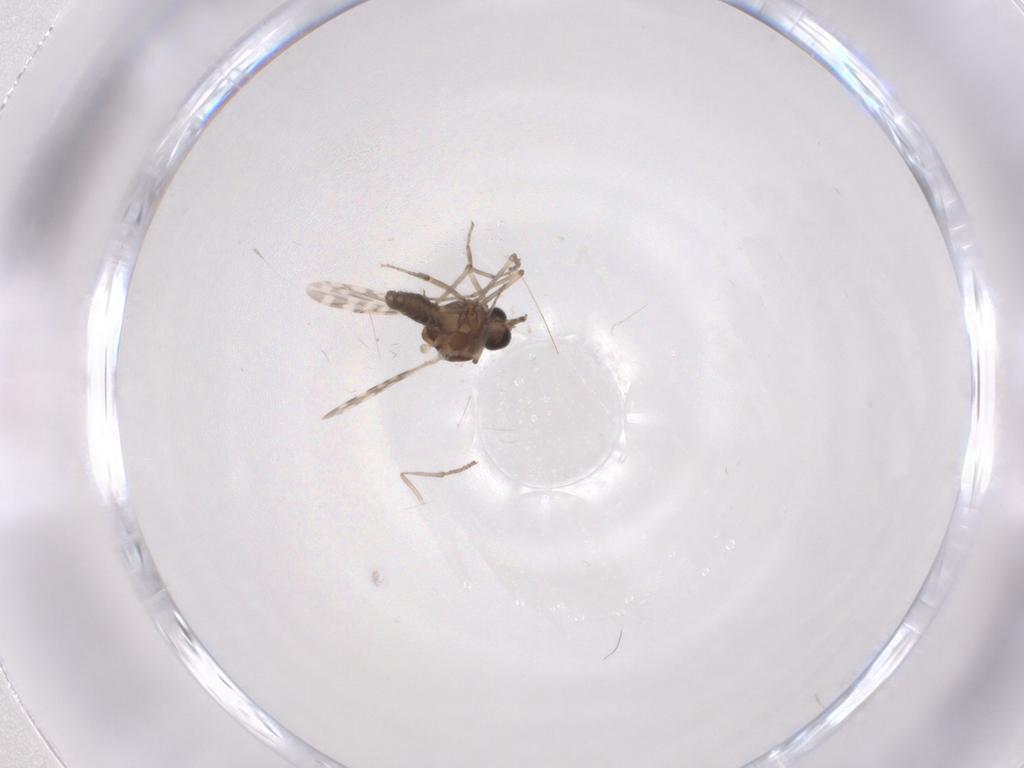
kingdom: Animalia
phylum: Arthropoda
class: Insecta
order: Diptera
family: Psychodidae
